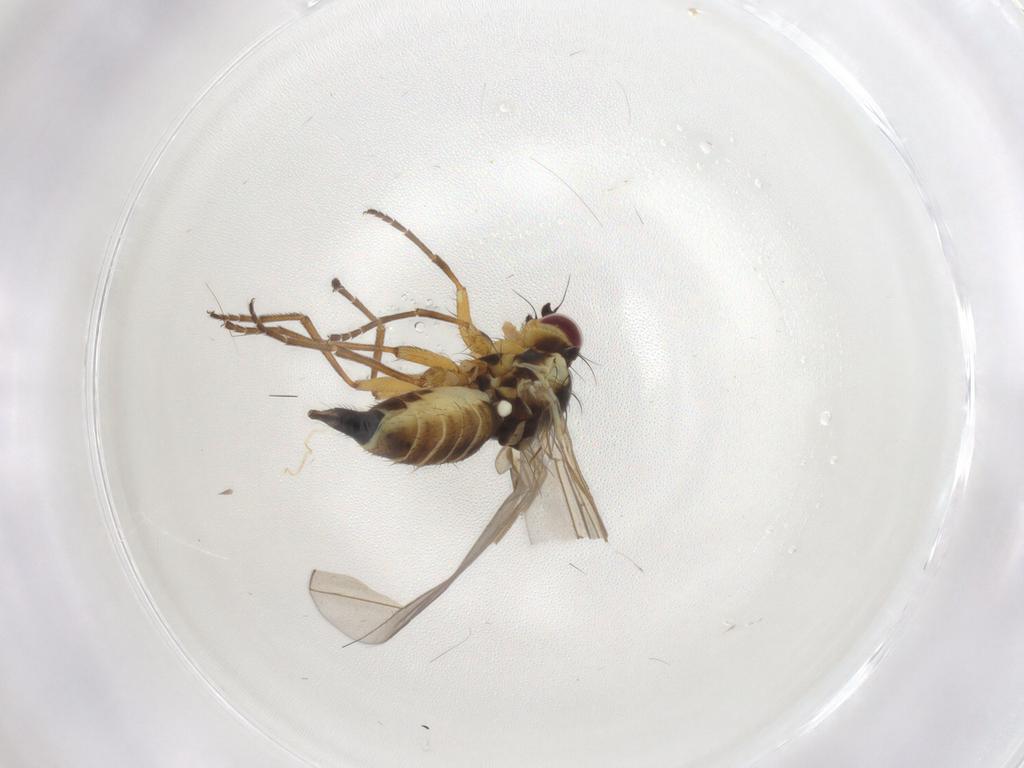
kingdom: Animalia
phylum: Arthropoda
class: Insecta
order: Diptera
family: Agromyzidae
